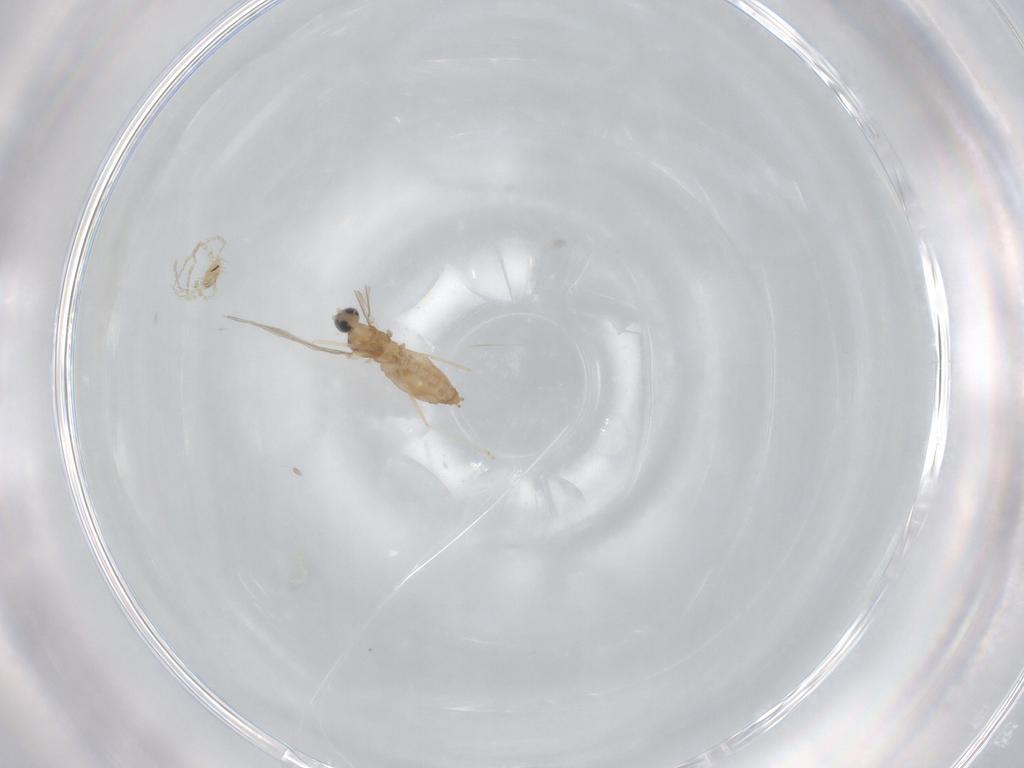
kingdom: Animalia
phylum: Arthropoda
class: Insecta
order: Diptera
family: Cecidomyiidae
